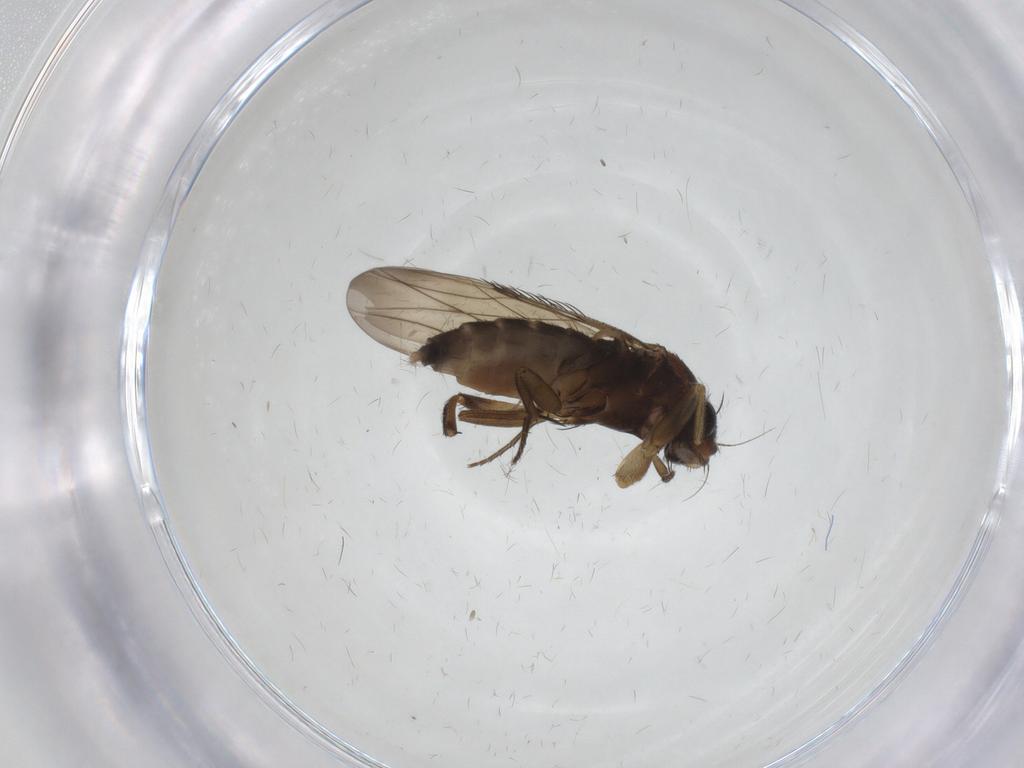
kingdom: Animalia
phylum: Arthropoda
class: Insecta
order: Diptera
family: Phoridae
